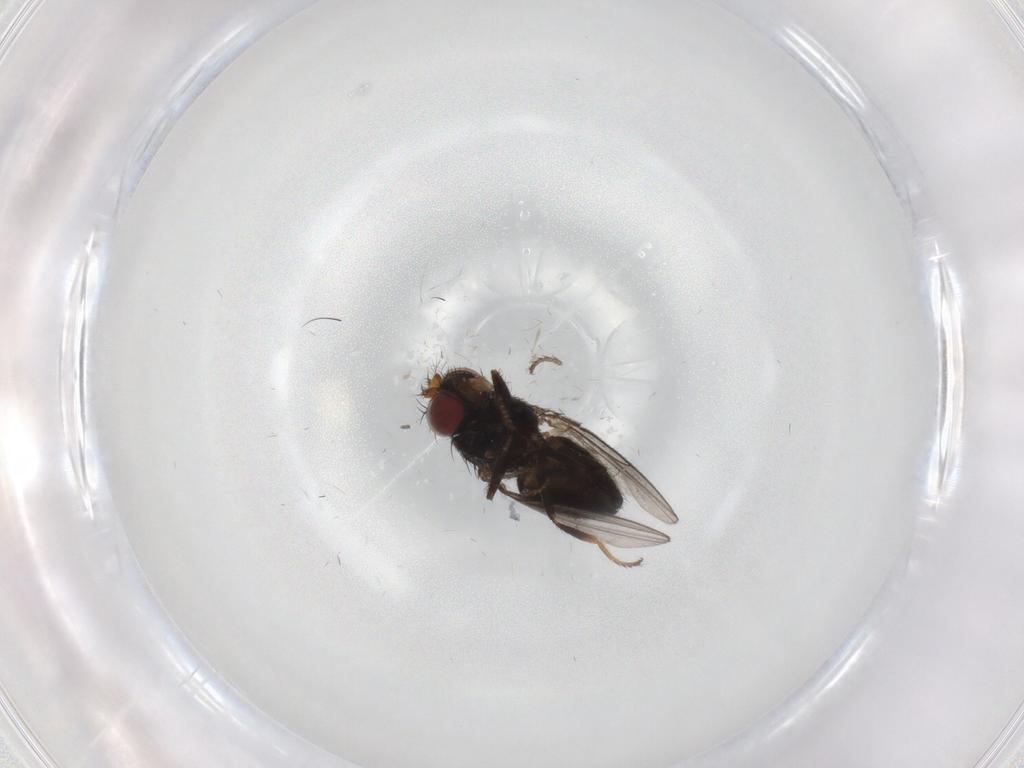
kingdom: Animalia
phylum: Arthropoda
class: Insecta
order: Diptera
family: Ephydridae
